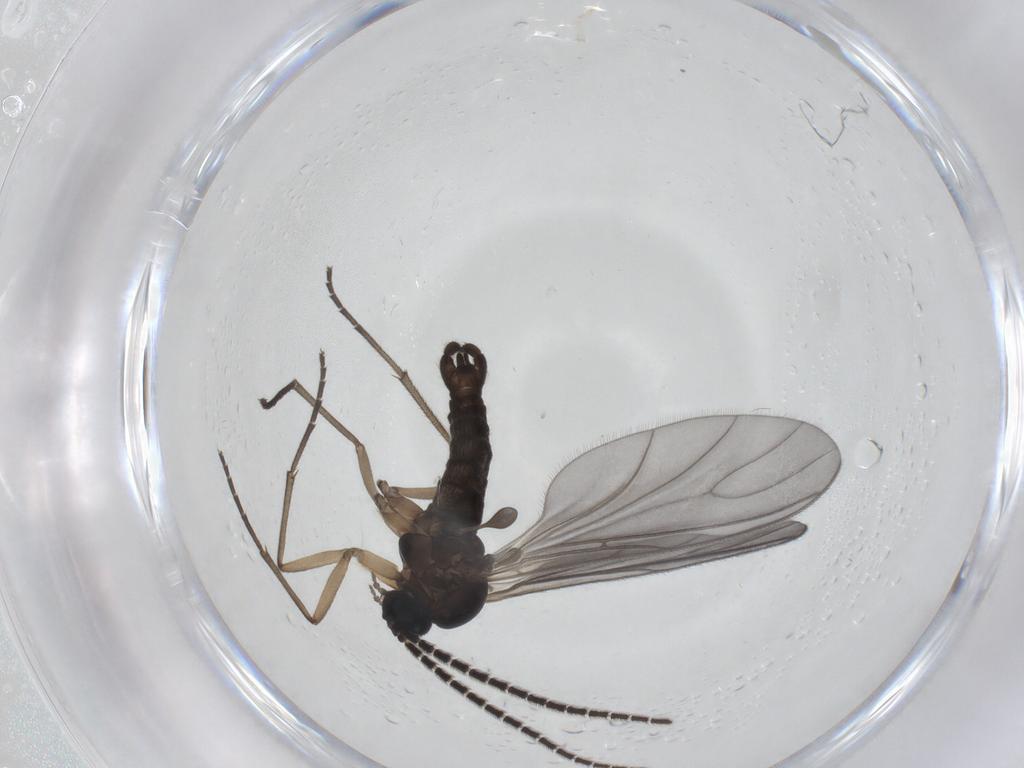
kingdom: Animalia
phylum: Arthropoda
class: Insecta
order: Diptera
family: Sciaridae
